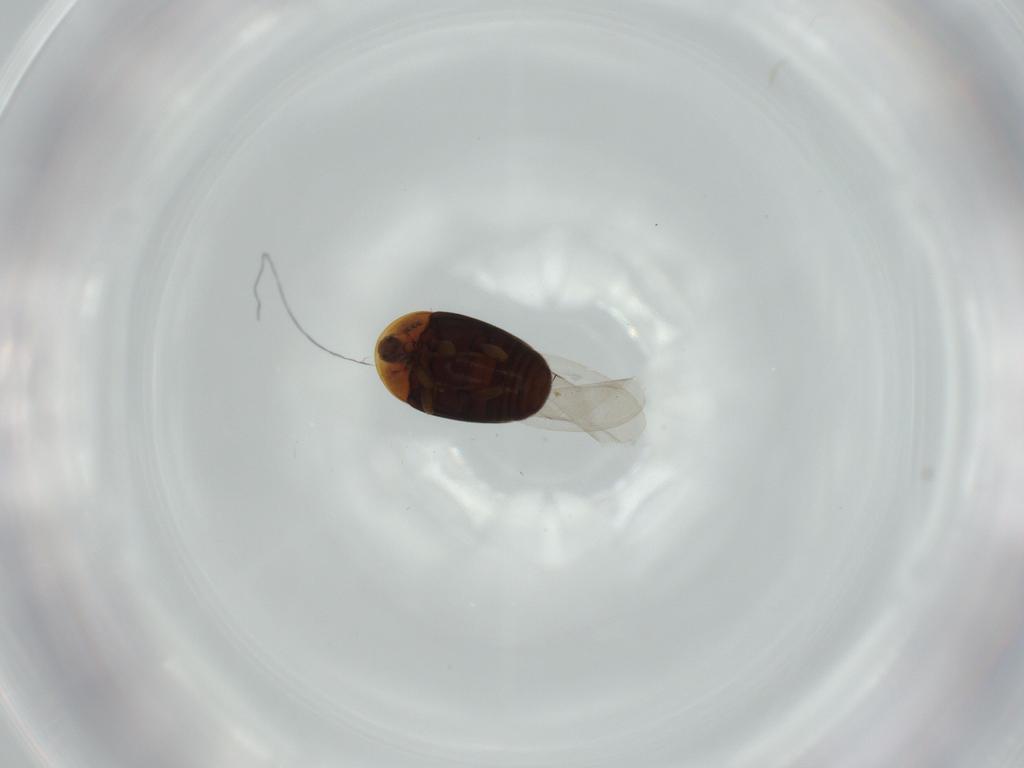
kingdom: Animalia
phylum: Arthropoda
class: Insecta
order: Coleoptera
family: Corylophidae
